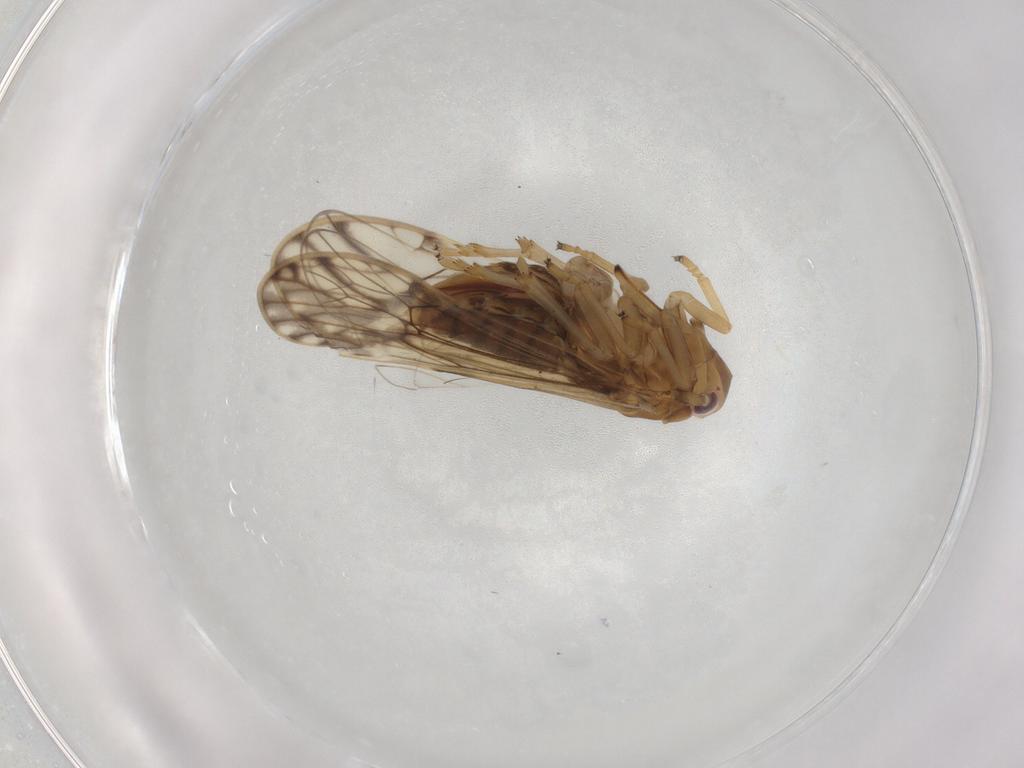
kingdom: Animalia
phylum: Arthropoda
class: Insecta
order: Hemiptera
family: Delphacidae
